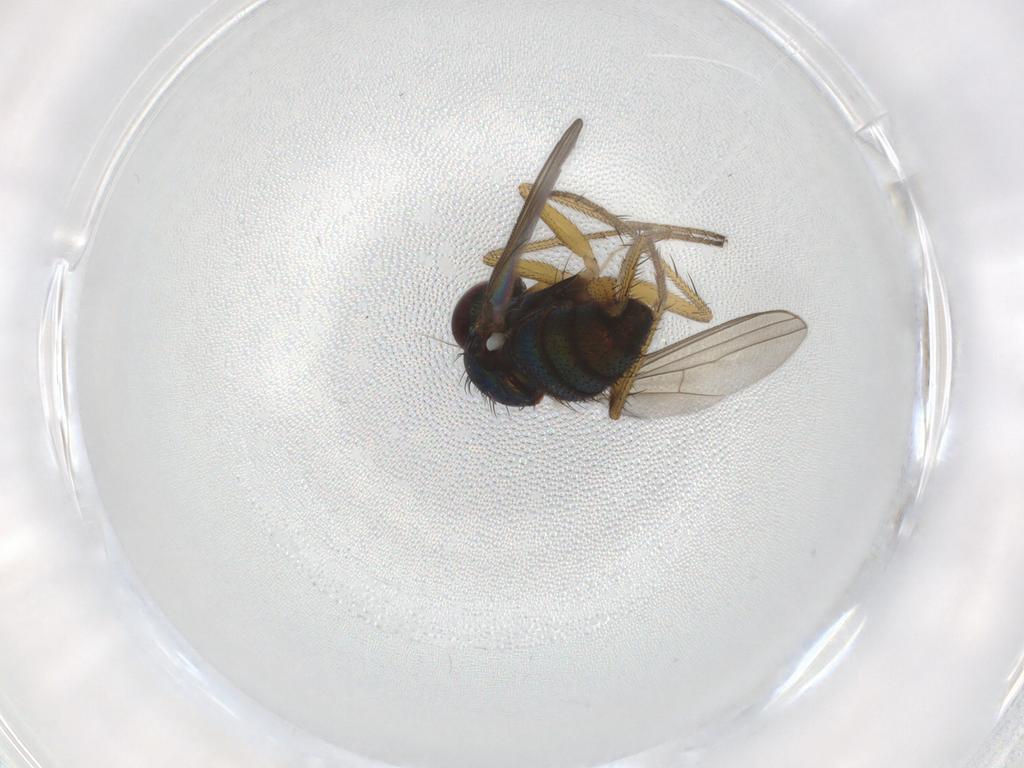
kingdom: Animalia
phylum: Arthropoda
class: Insecta
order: Diptera
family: Dolichopodidae
